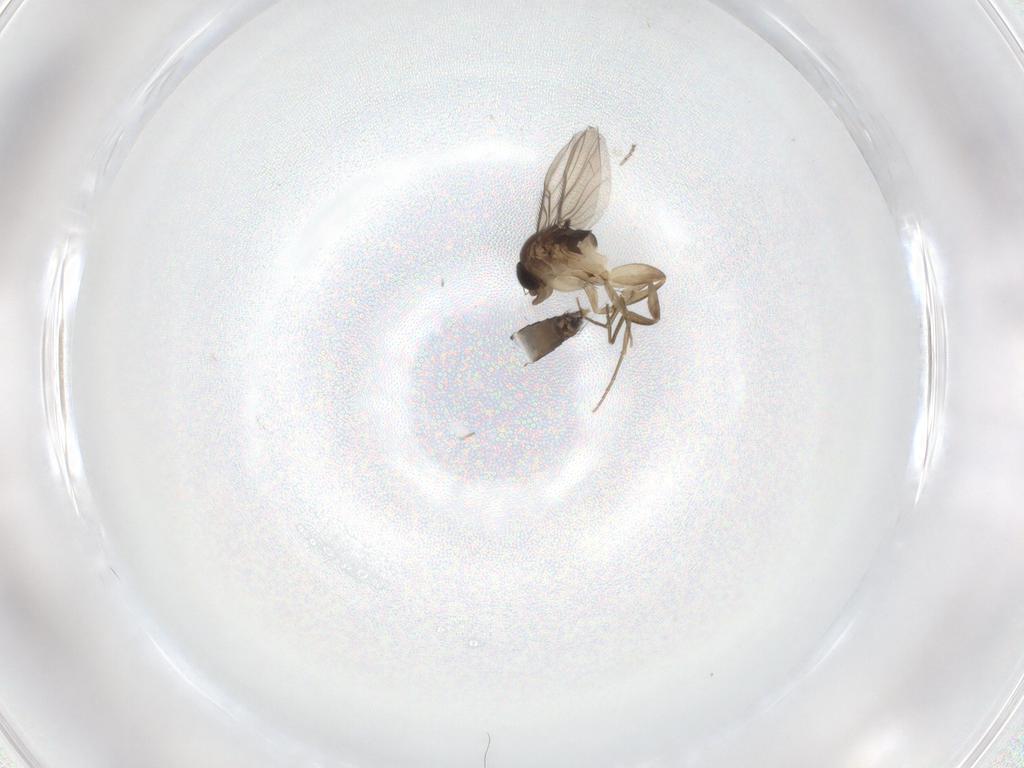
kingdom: Animalia
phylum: Arthropoda
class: Insecta
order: Diptera
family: Phoridae
